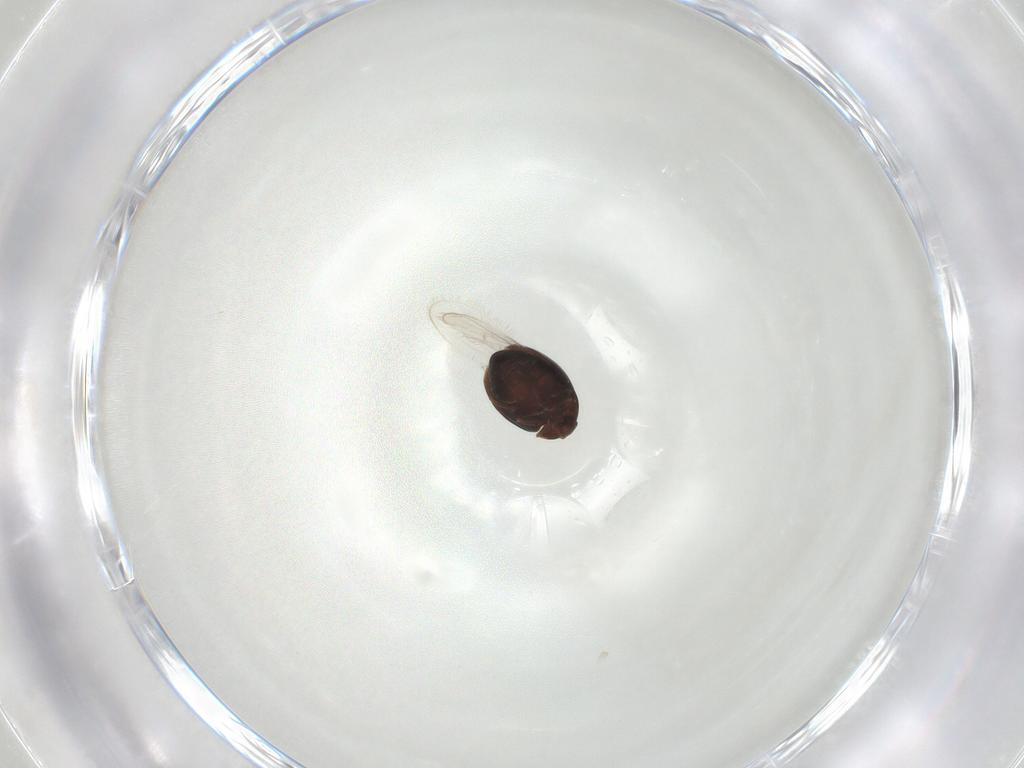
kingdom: Animalia
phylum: Arthropoda
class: Insecta
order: Coleoptera
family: Corylophidae
